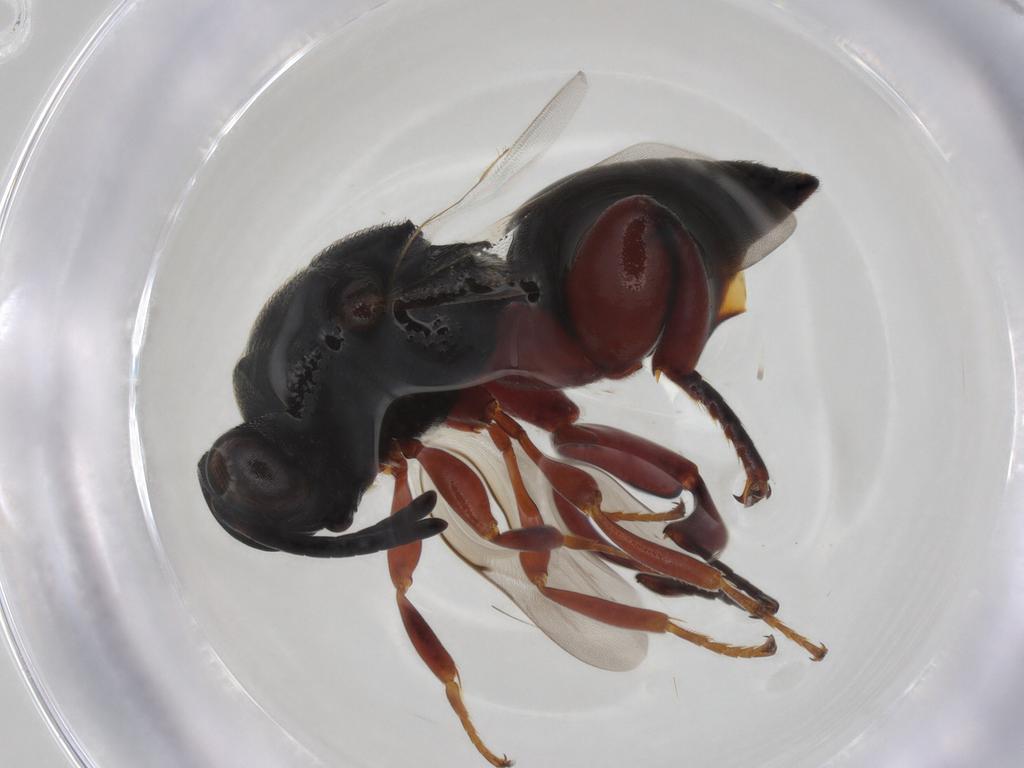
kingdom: Animalia
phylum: Arthropoda
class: Insecta
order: Hymenoptera
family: Chalcididae
